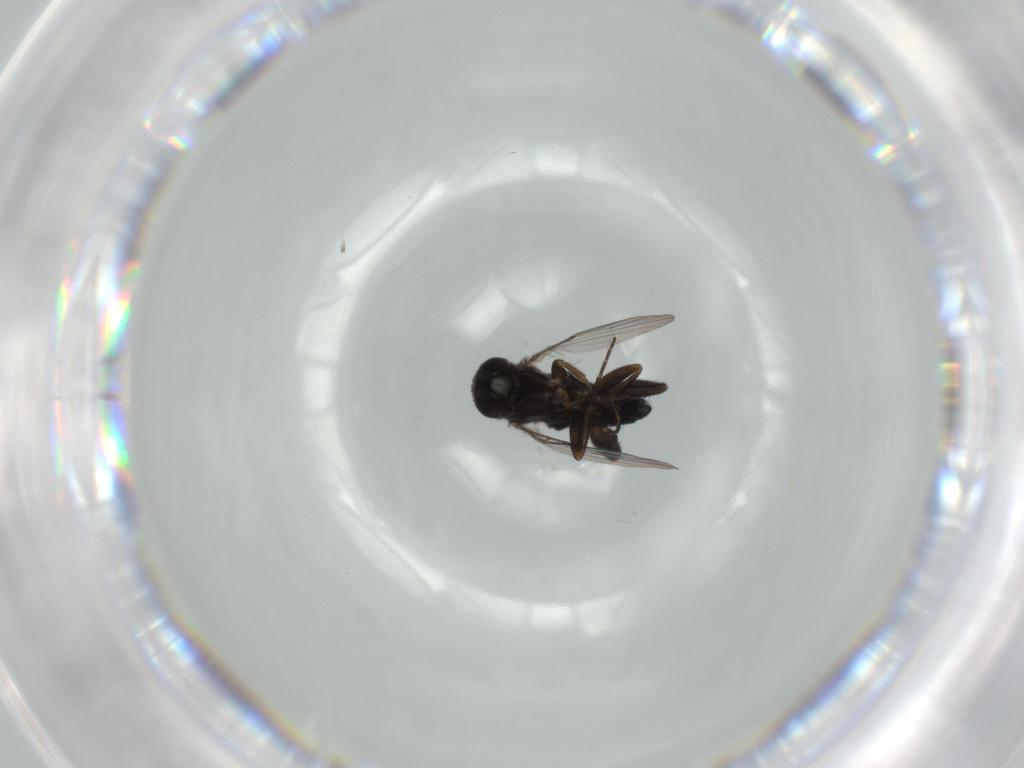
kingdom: Animalia
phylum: Arthropoda
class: Insecta
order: Diptera
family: Phoridae
